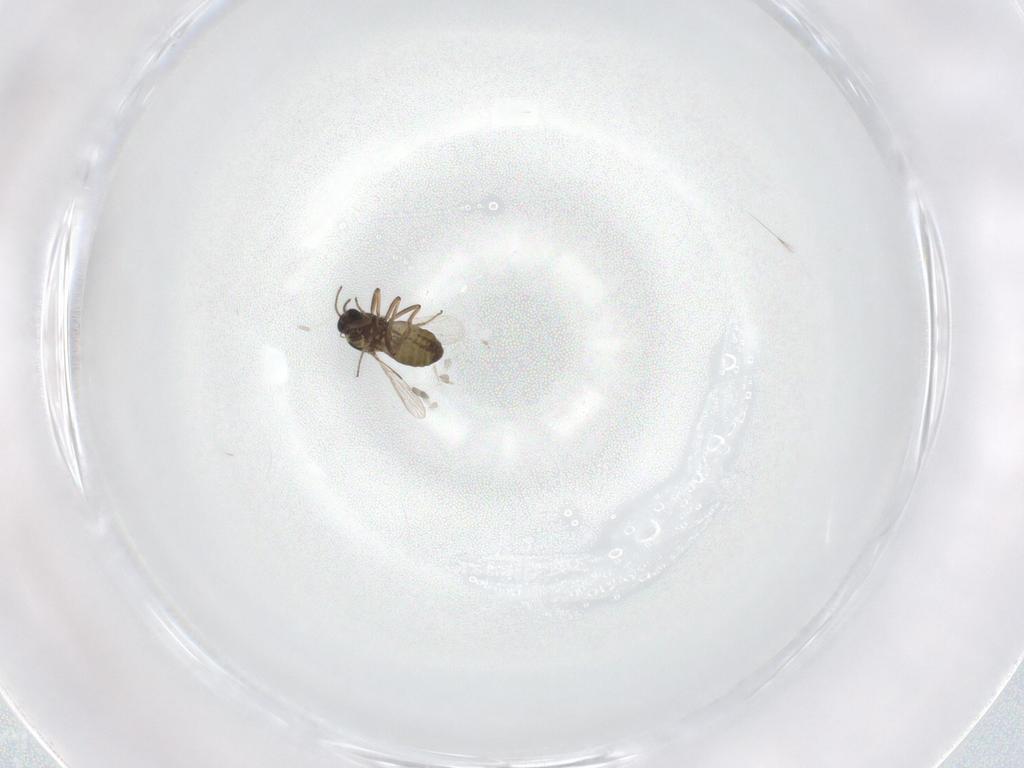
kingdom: Animalia
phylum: Arthropoda
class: Insecta
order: Diptera
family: Ceratopogonidae
